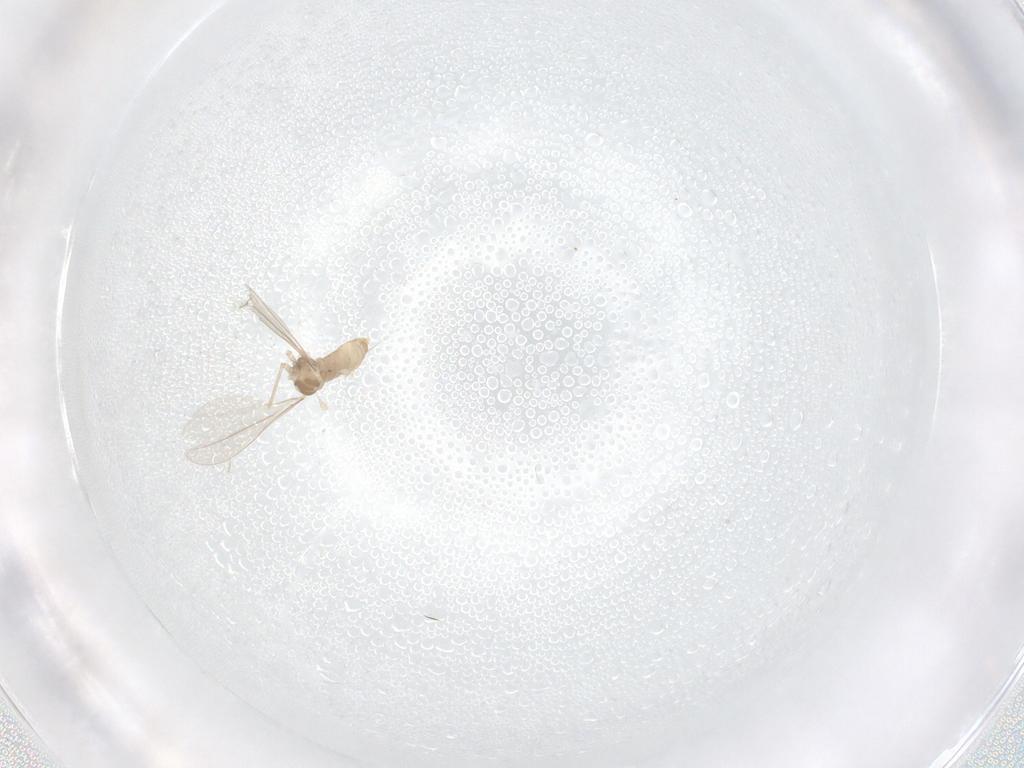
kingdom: Animalia
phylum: Arthropoda
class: Insecta
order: Diptera
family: Cecidomyiidae
